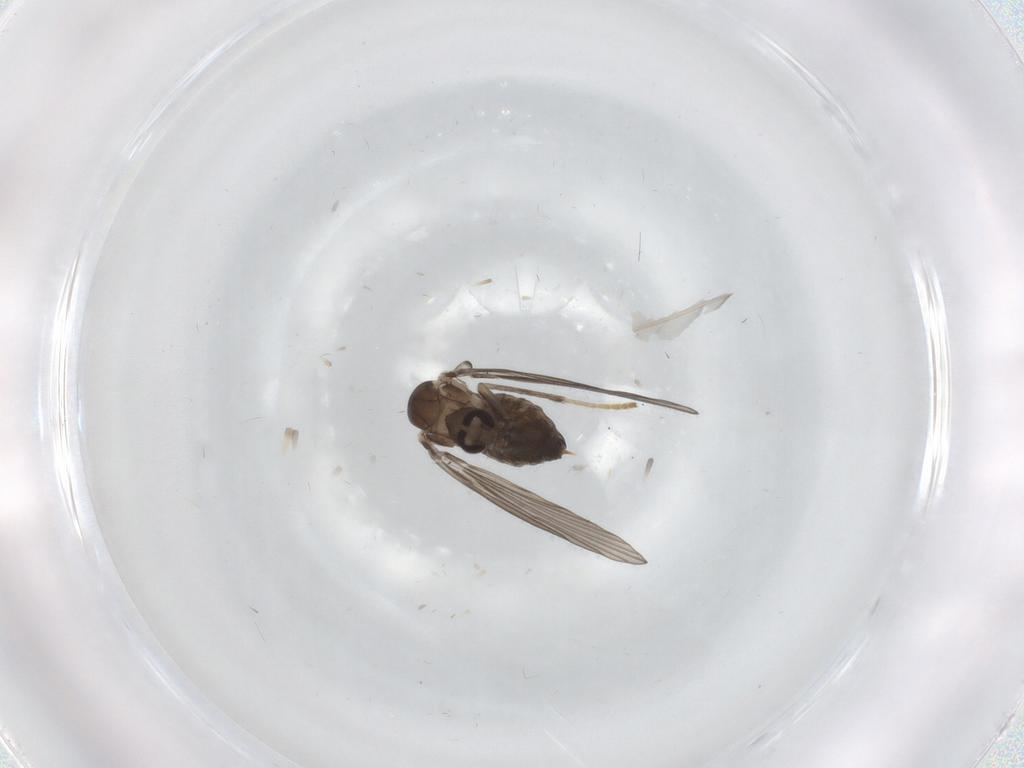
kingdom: Animalia
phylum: Arthropoda
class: Insecta
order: Diptera
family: Psychodidae
